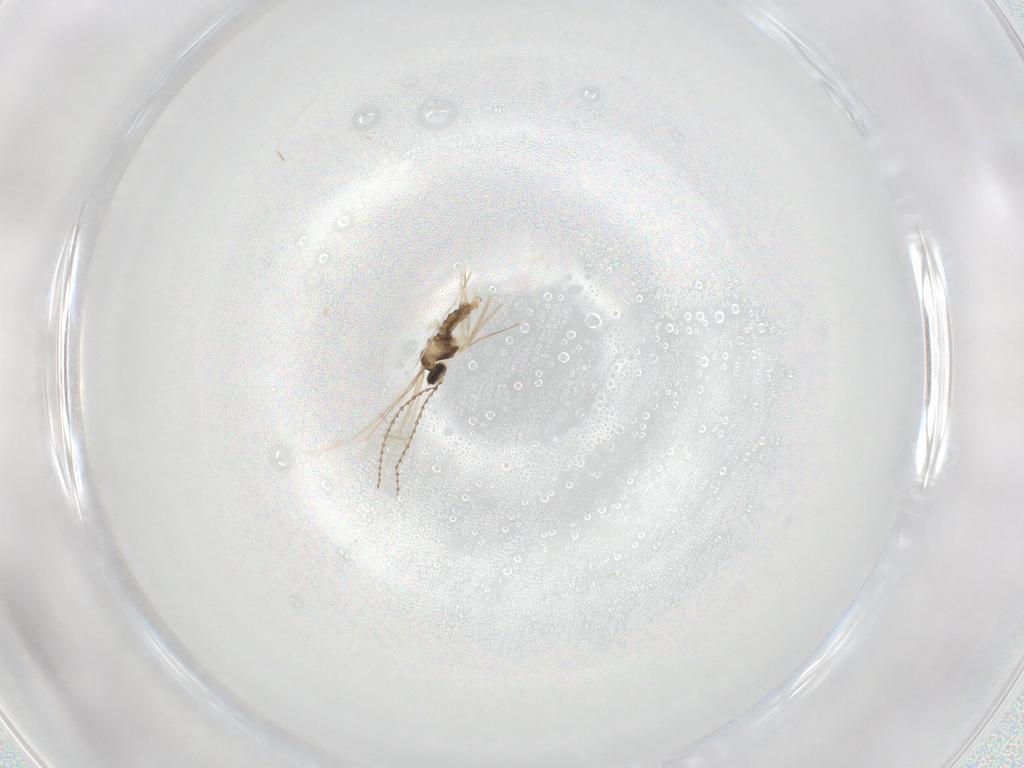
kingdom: Animalia
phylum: Arthropoda
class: Insecta
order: Diptera
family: Cecidomyiidae
